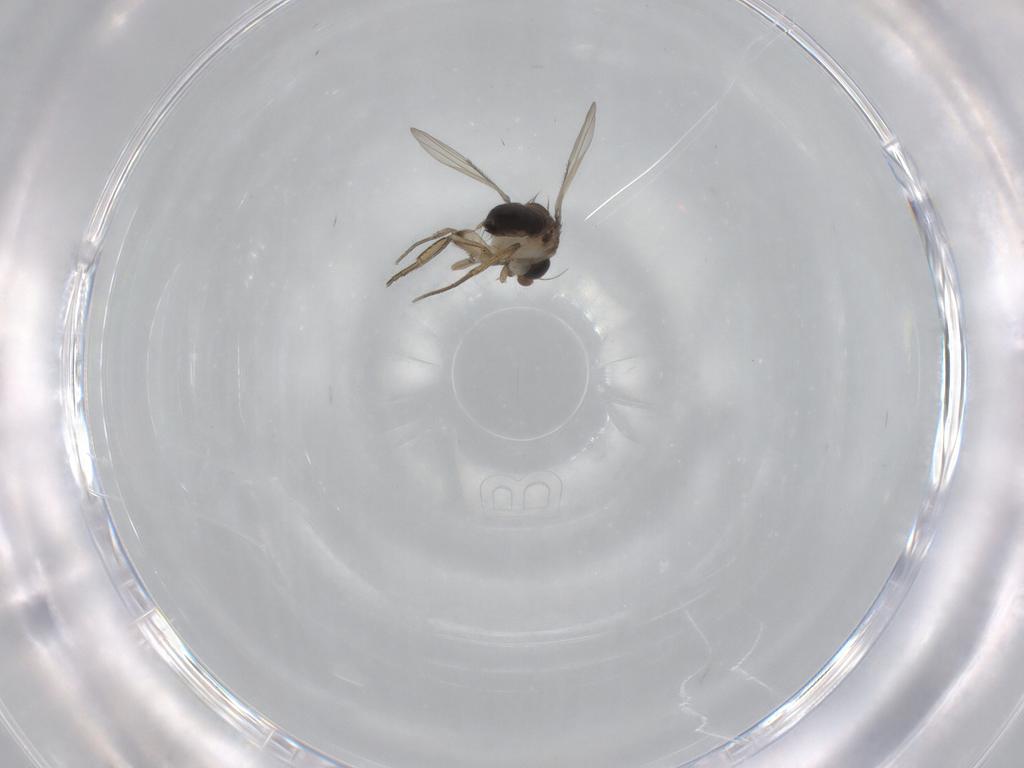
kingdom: Animalia
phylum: Arthropoda
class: Insecta
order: Diptera
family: Phoridae
